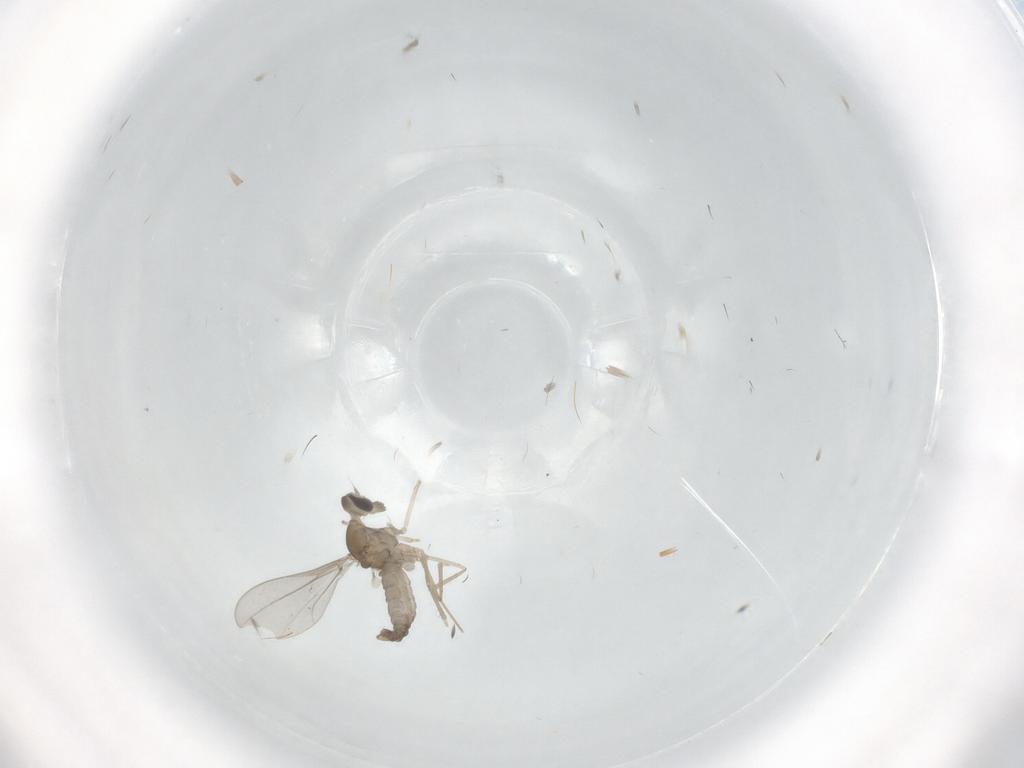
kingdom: Animalia
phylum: Arthropoda
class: Insecta
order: Diptera
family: Cecidomyiidae
